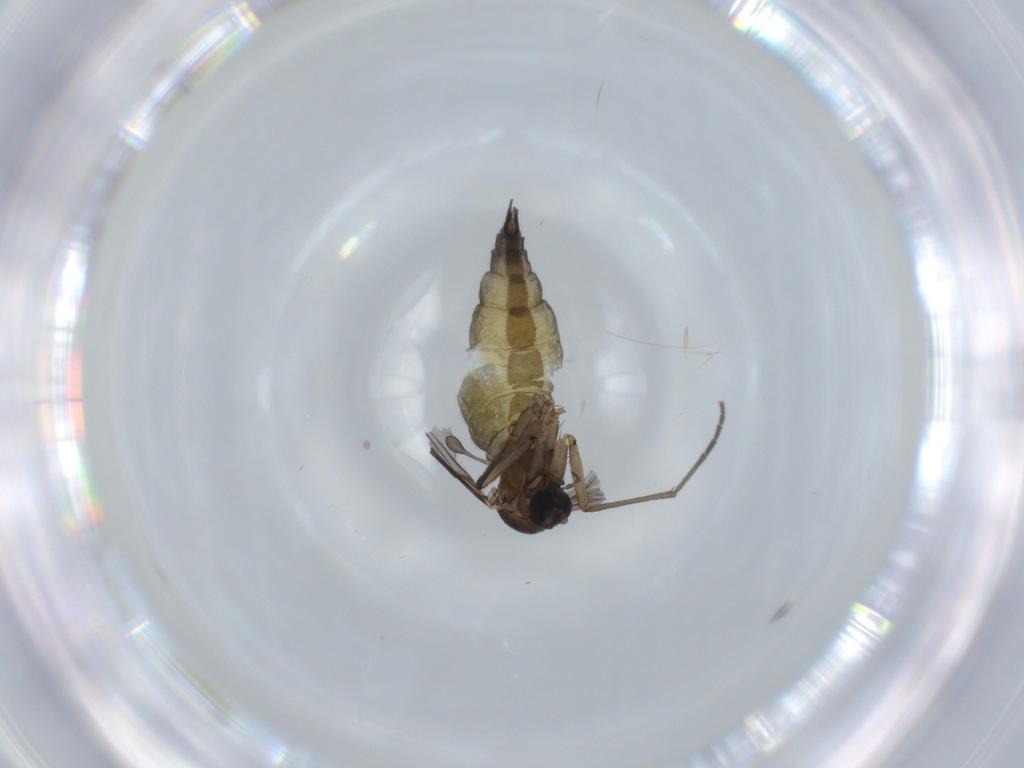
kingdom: Animalia
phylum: Arthropoda
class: Insecta
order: Diptera
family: Sciaridae
